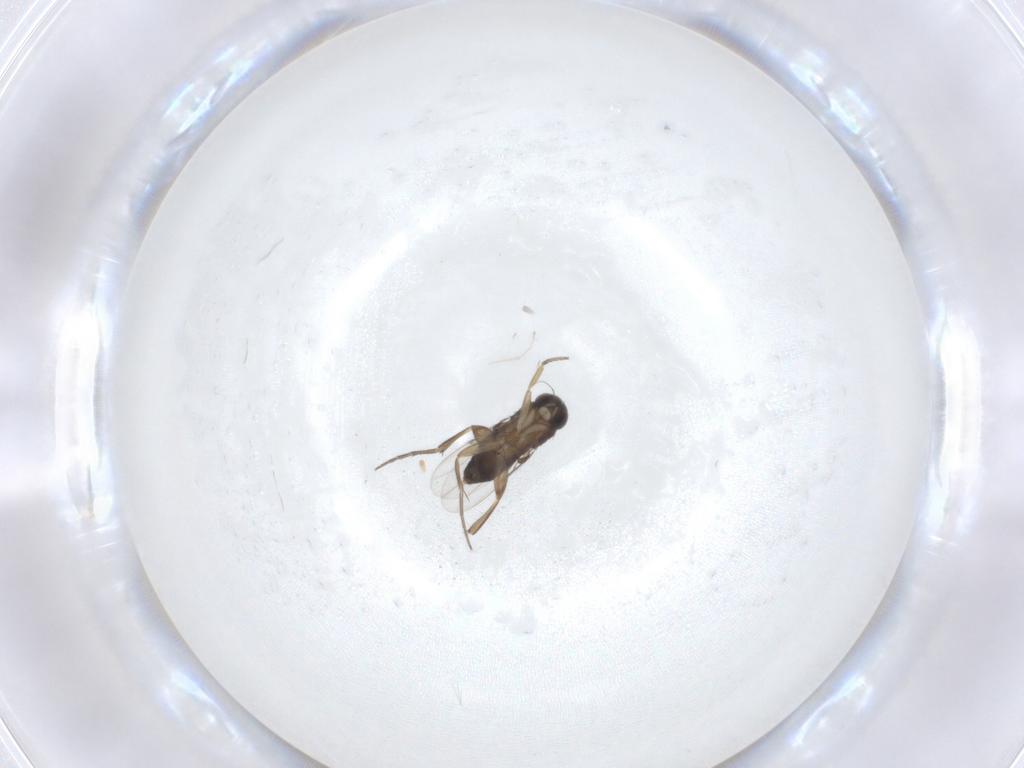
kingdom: Animalia
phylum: Arthropoda
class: Insecta
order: Diptera
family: Phoridae
